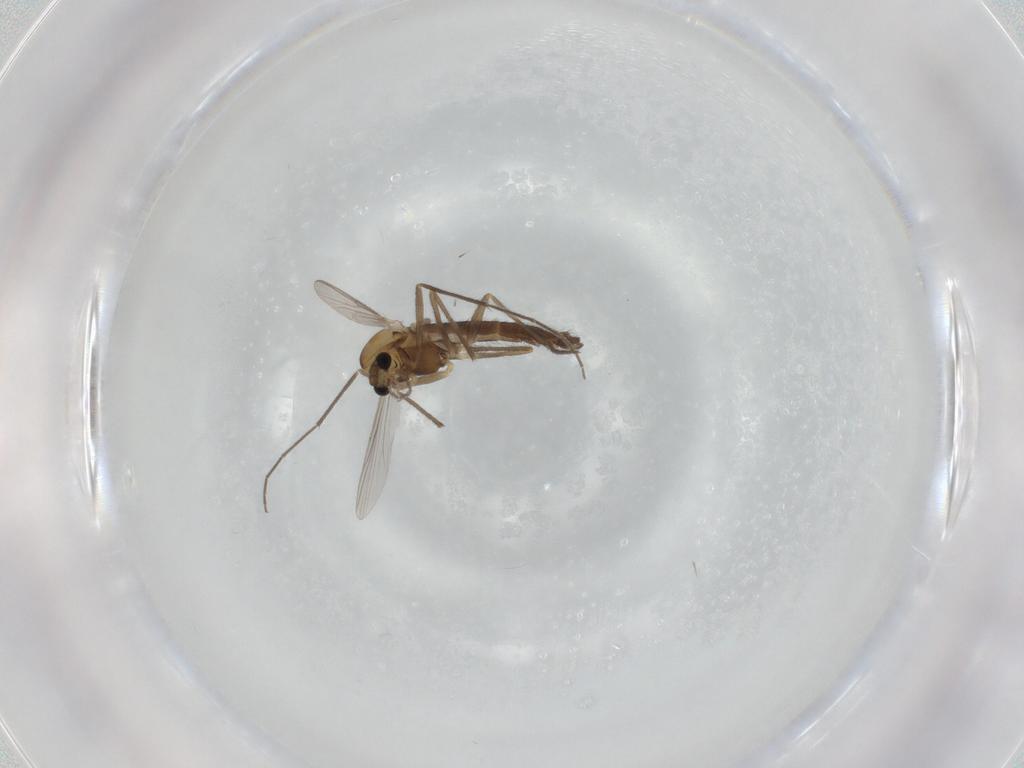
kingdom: Animalia
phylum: Arthropoda
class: Insecta
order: Diptera
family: Chironomidae
